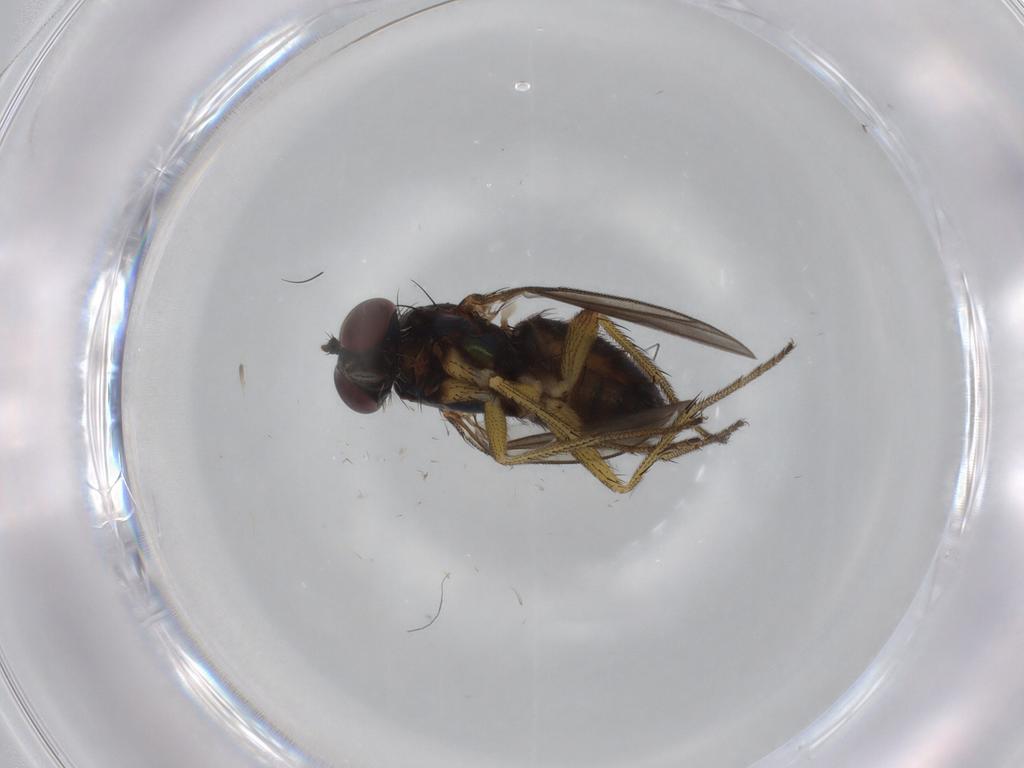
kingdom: Animalia
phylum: Arthropoda
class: Insecta
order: Diptera
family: Dolichopodidae
